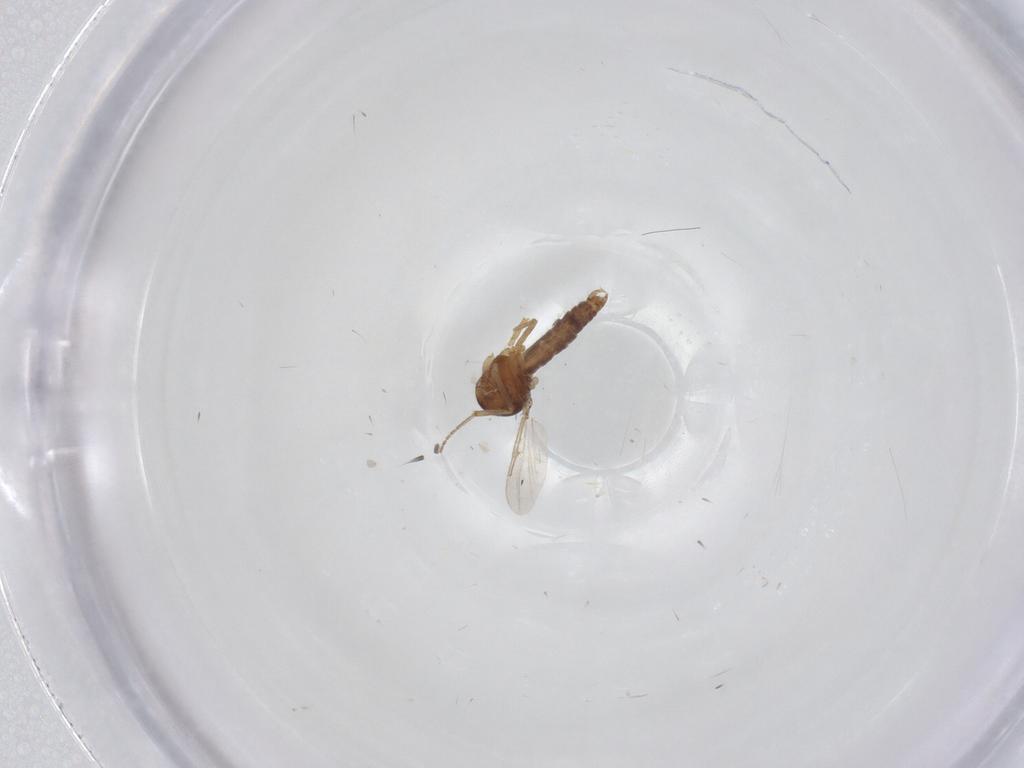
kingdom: Animalia
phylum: Arthropoda
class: Insecta
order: Diptera
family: Ceratopogonidae
